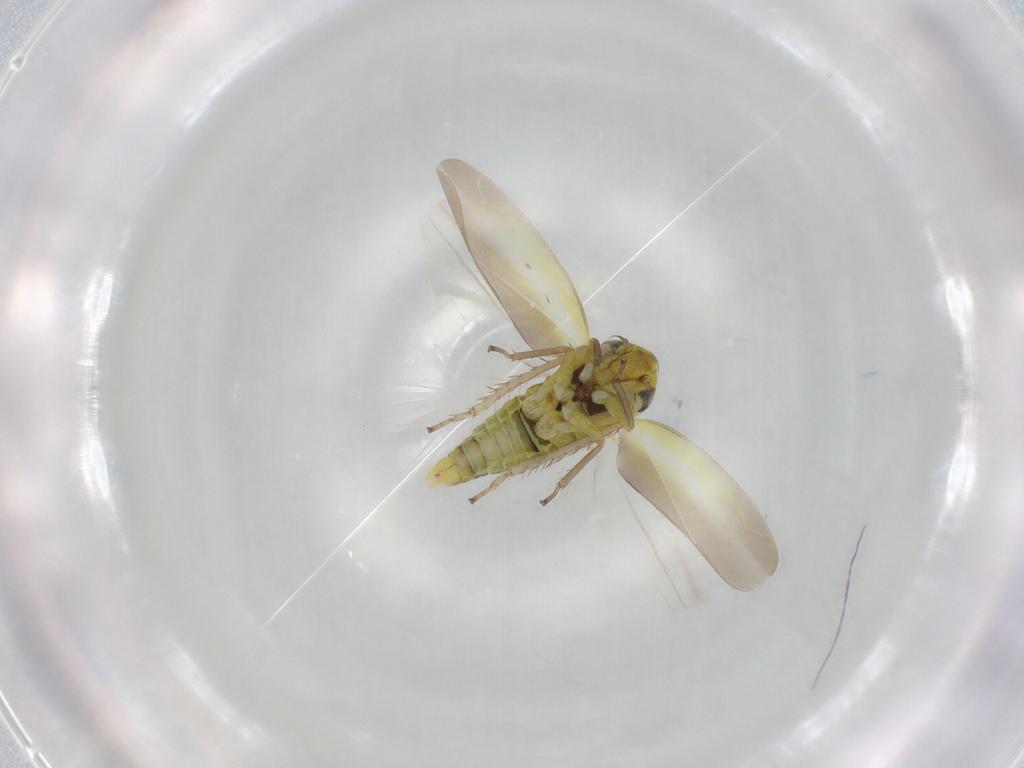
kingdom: Animalia
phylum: Arthropoda
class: Insecta
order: Hemiptera
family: Cicadellidae
